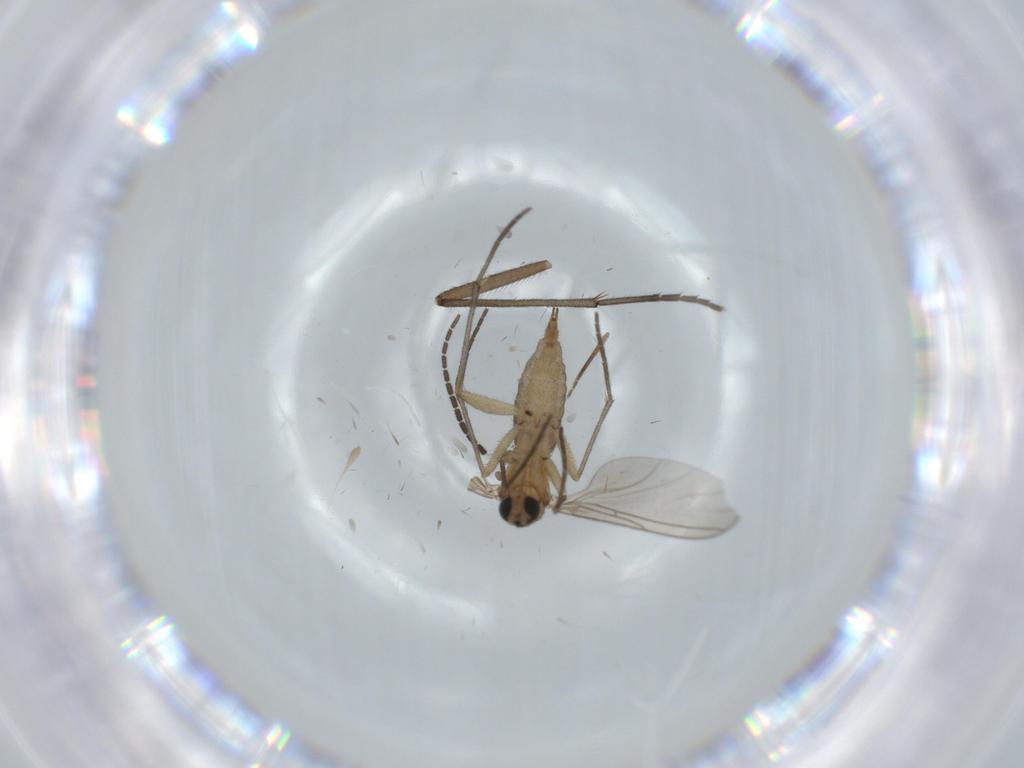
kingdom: Animalia
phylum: Arthropoda
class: Insecta
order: Diptera
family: Sciaridae
